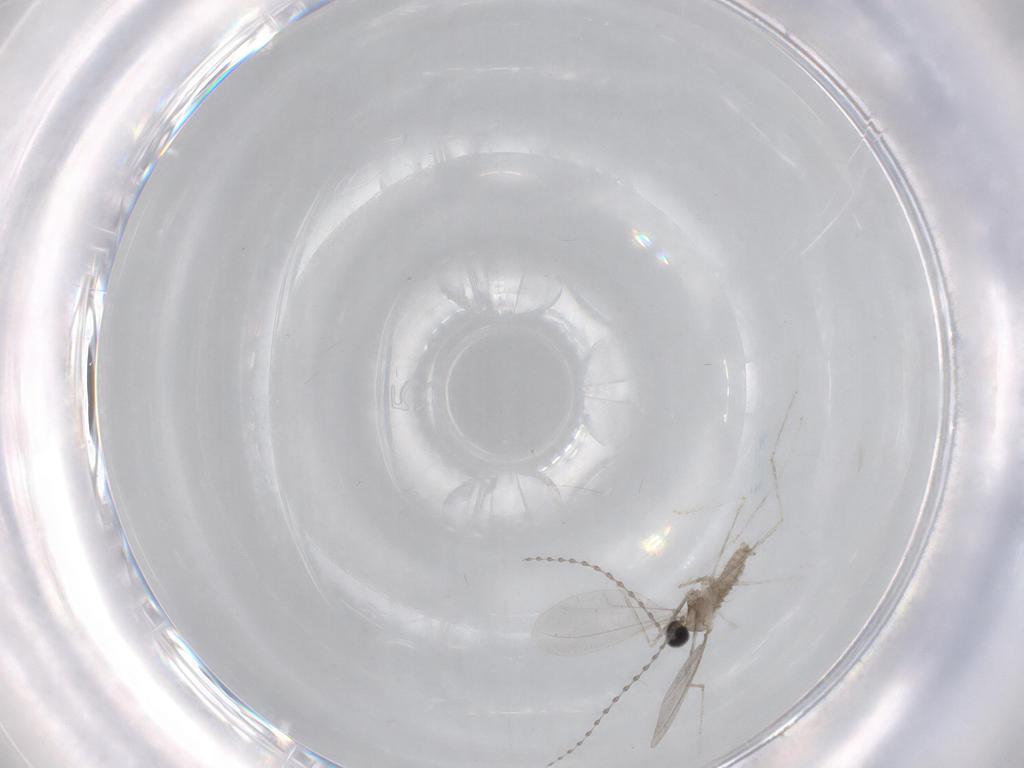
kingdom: Animalia
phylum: Arthropoda
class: Insecta
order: Diptera
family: Cecidomyiidae
